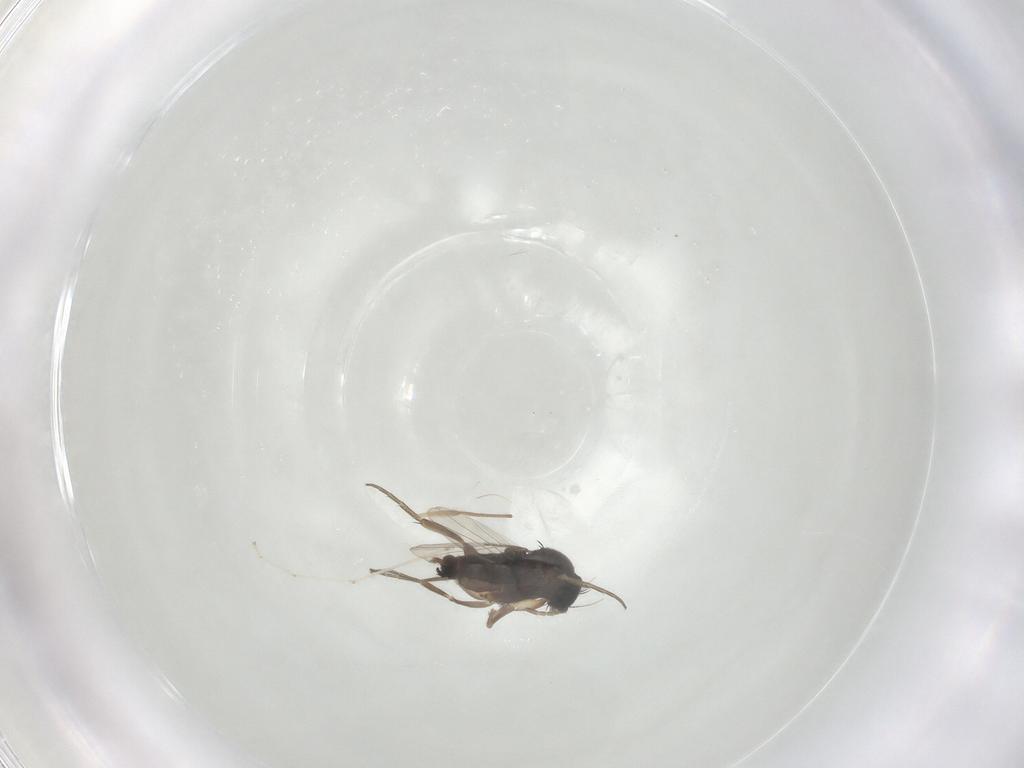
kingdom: Animalia
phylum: Arthropoda
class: Insecta
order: Diptera
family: Phoridae
